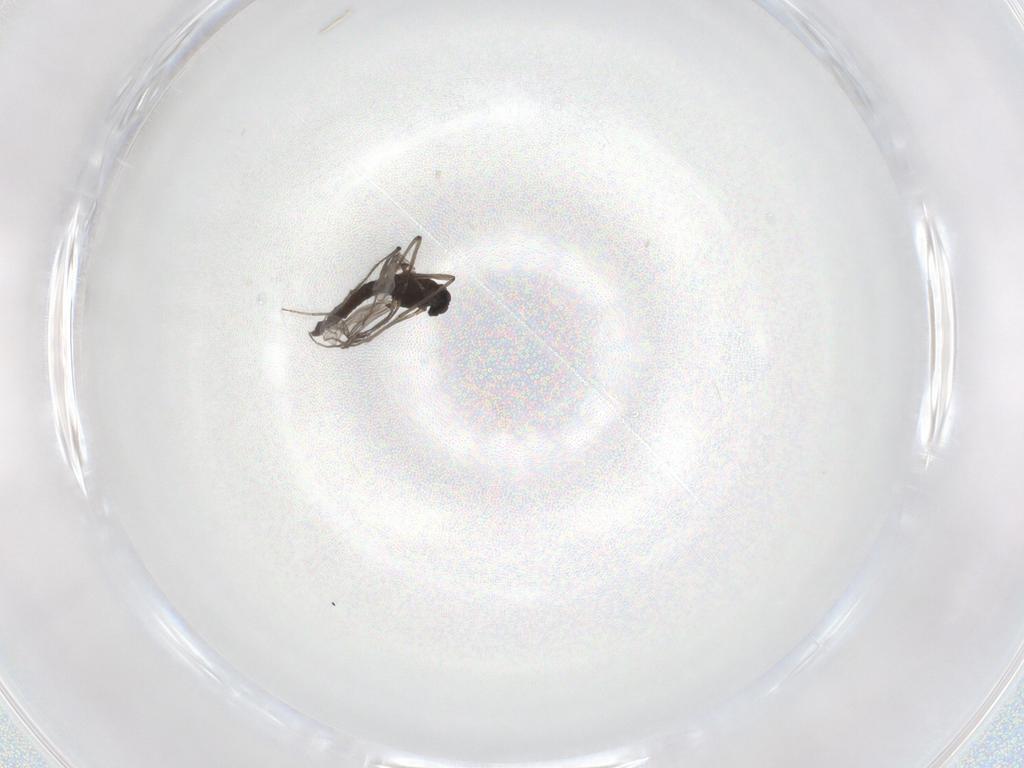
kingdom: Animalia
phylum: Arthropoda
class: Insecta
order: Diptera
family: Chironomidae
